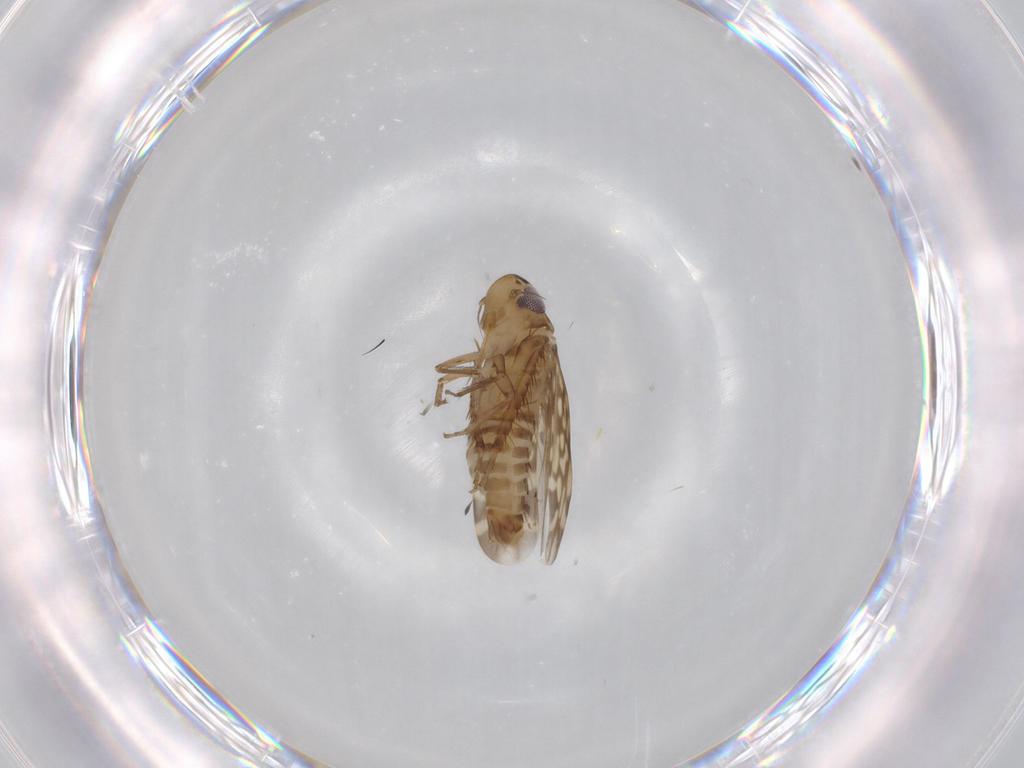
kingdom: Animalia
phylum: Arthropoda
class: Insecta
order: Hemiptera
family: Cicadellidae
